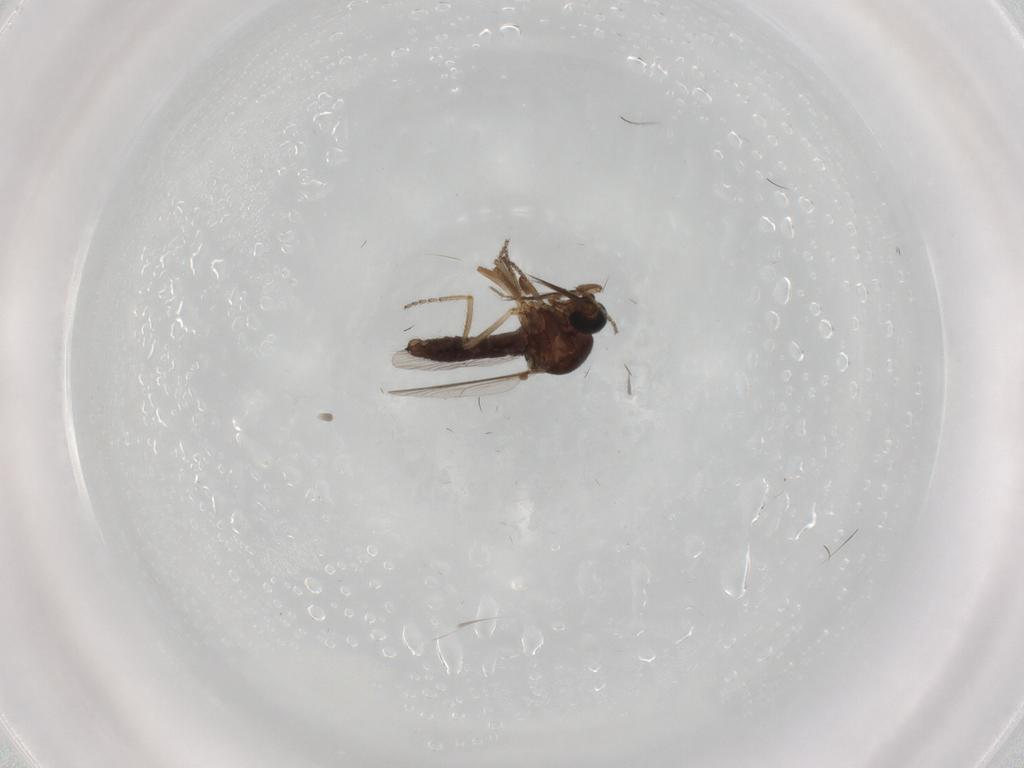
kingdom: Animalia
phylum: Arthropoda
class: Insecta
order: Diptera
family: Ceratopogonidae
